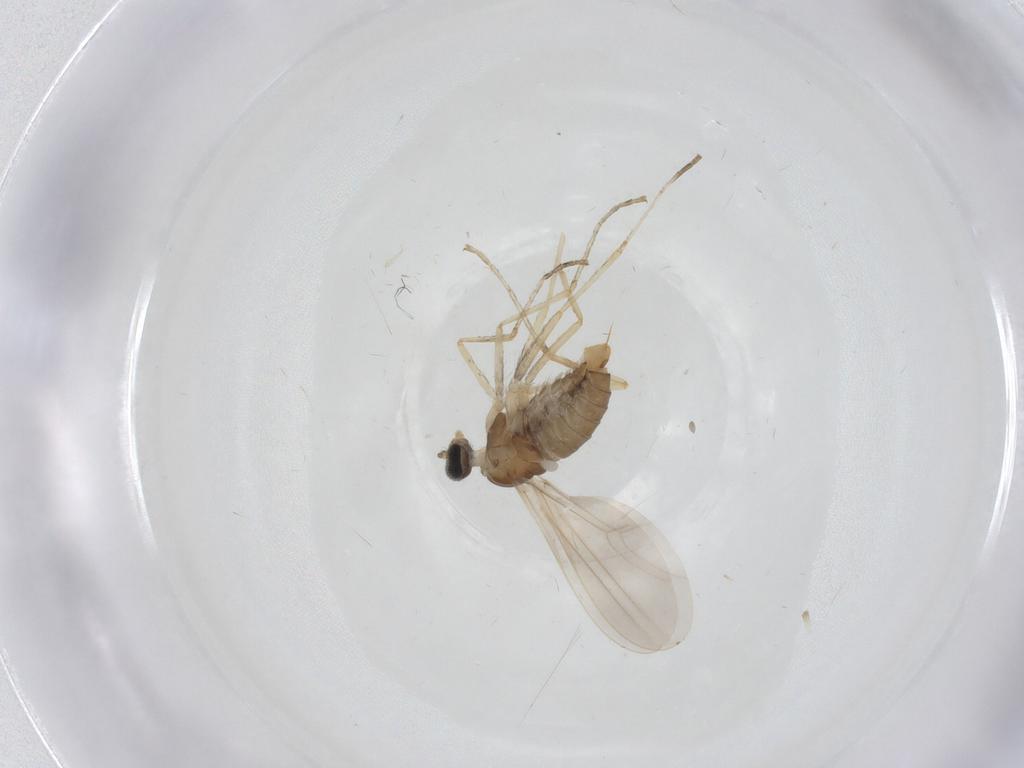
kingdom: Animalia
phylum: Arthropoda
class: Insecta
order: Diptera
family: Cecidomyiidae
